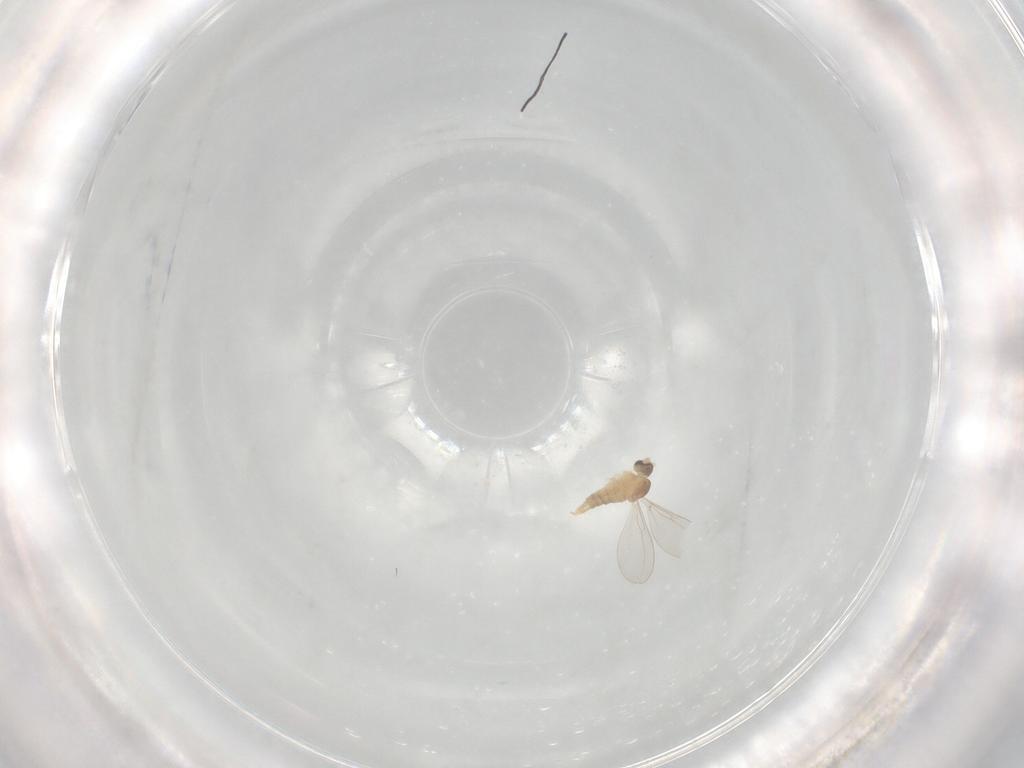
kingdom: Animalia
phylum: Arthropoda
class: Insecta
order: Diptera
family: Cecidomyiidae
